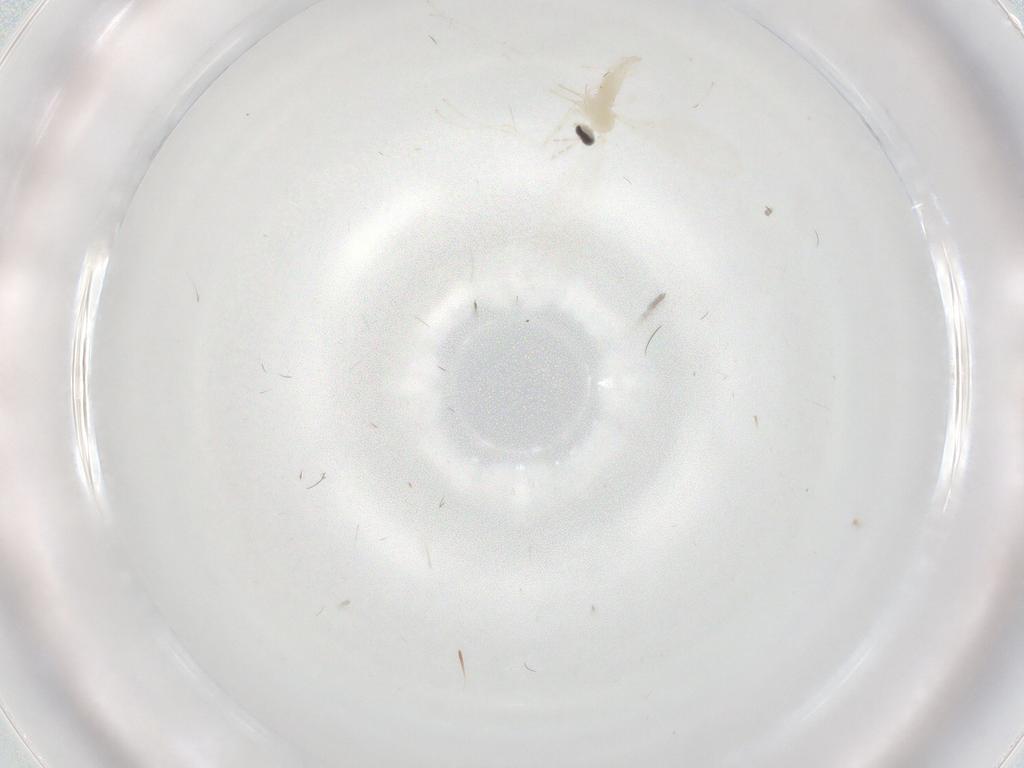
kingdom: Animalia
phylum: Arthropoda
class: Insecta
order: Diptera
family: Cecidomyiidae
